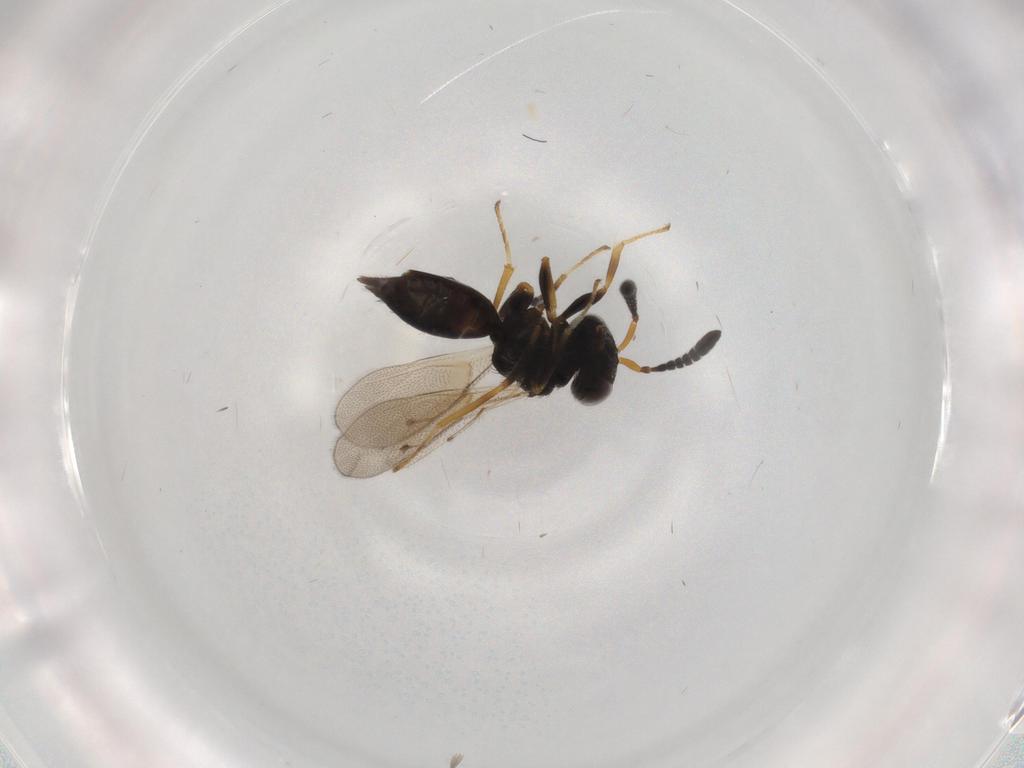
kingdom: Animalia
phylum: Arthropoda
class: Insecta
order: Hymenoptera
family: Pteromalidae
